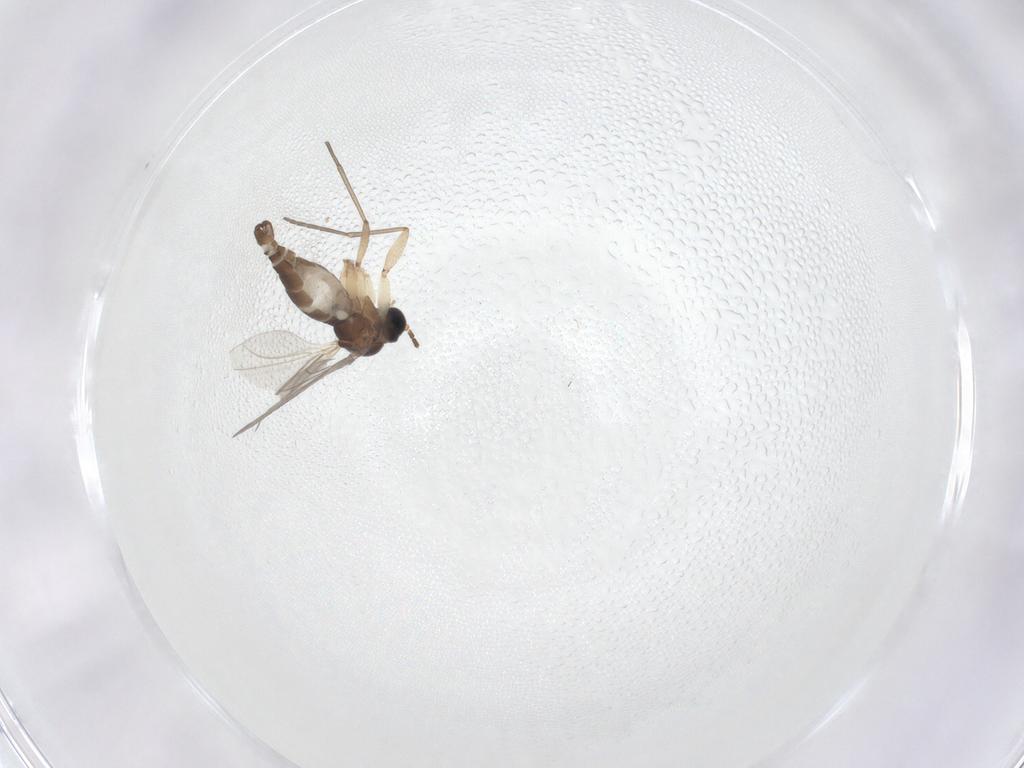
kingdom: Animalia
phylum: Arthropoda
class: Insecta
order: Diptera
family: Sciaridae
